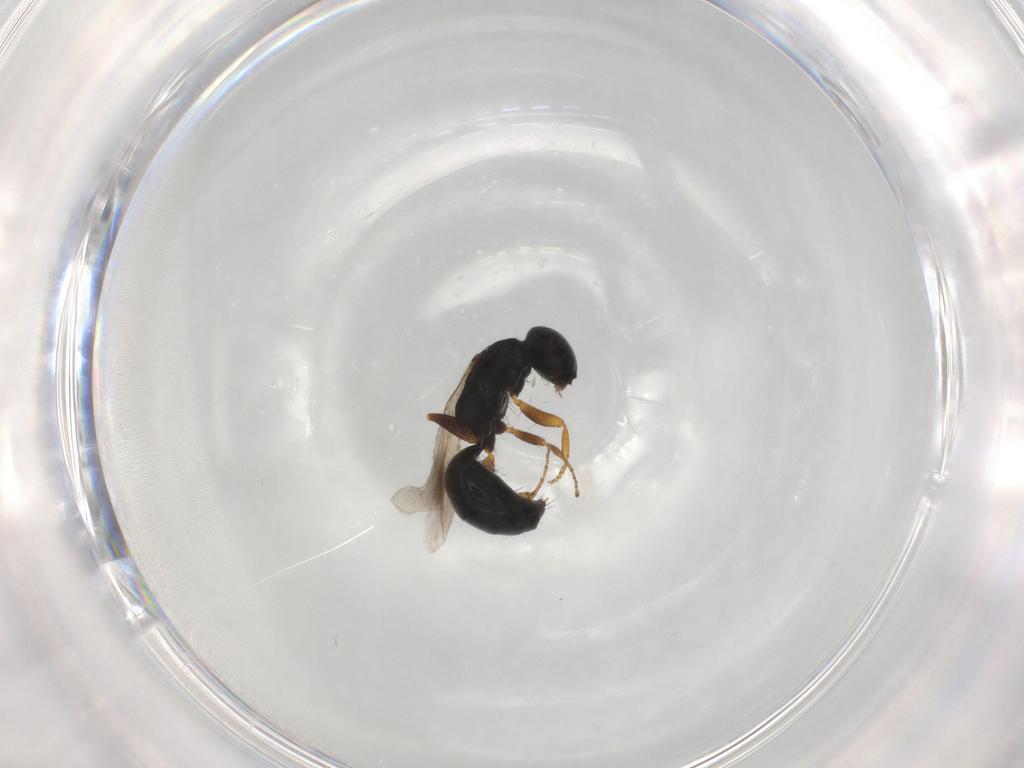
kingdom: Animalia
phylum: Arthropoda
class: Insecta
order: Hymenoptera
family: Bethylidae
